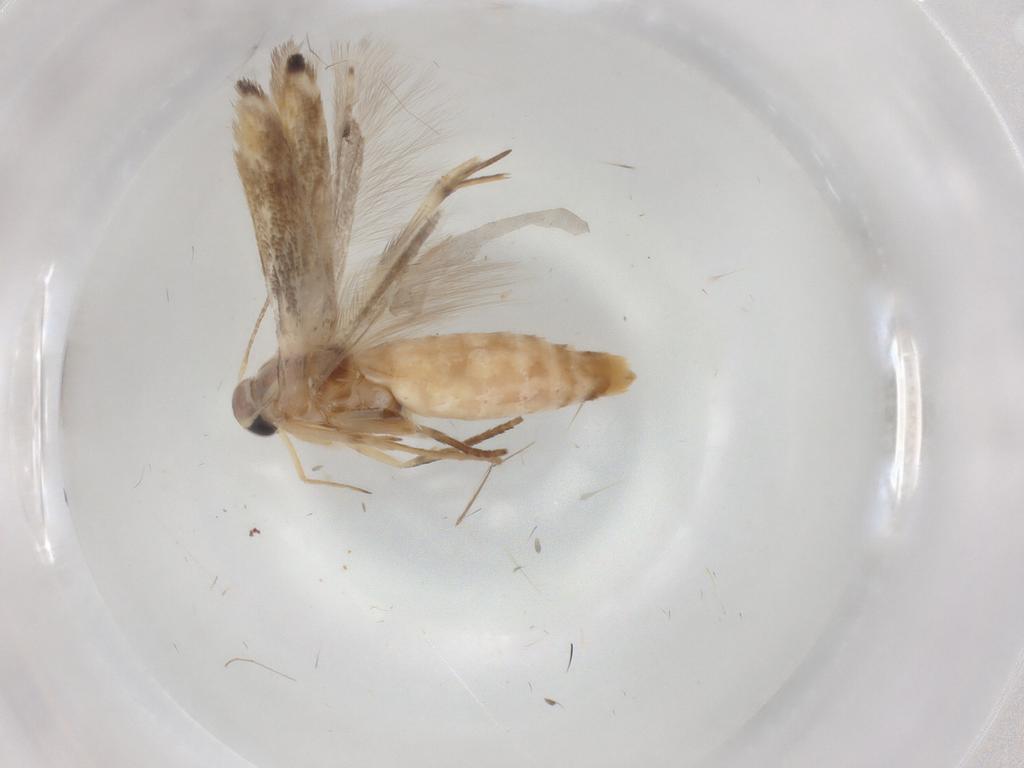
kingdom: Animalia
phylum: Arthropoda
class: Insecta
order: Lepidoptera
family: Gelechiidae
